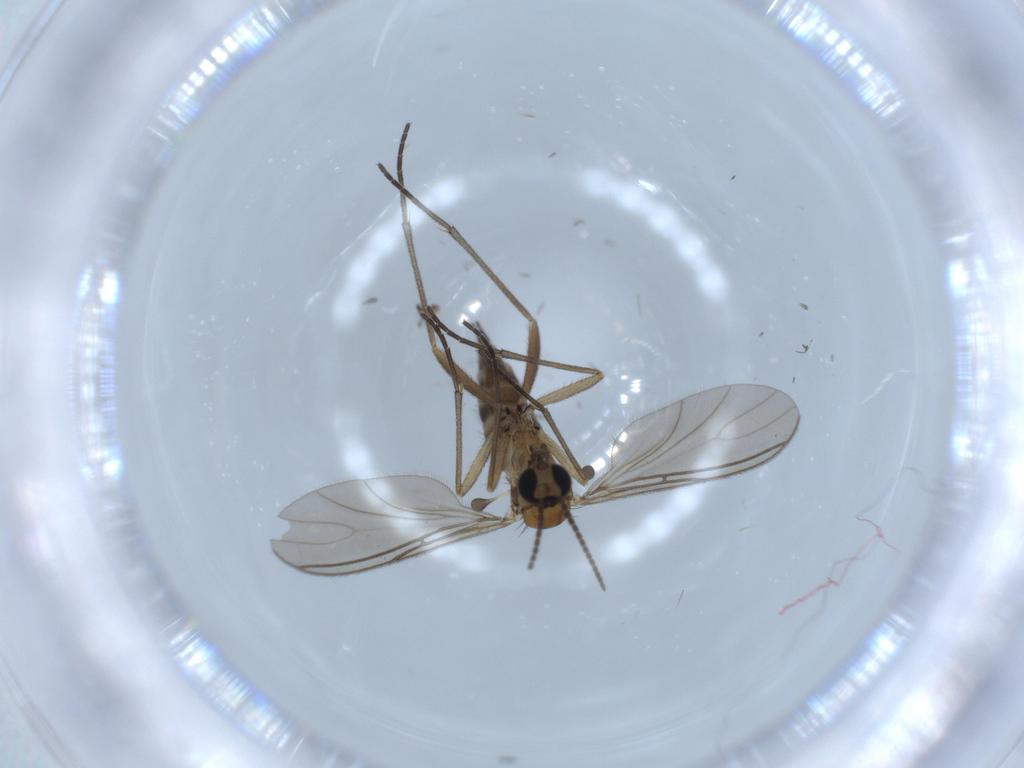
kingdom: Animalia
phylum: Arthropoda
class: Insecta
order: Diptera
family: Sciaridae
